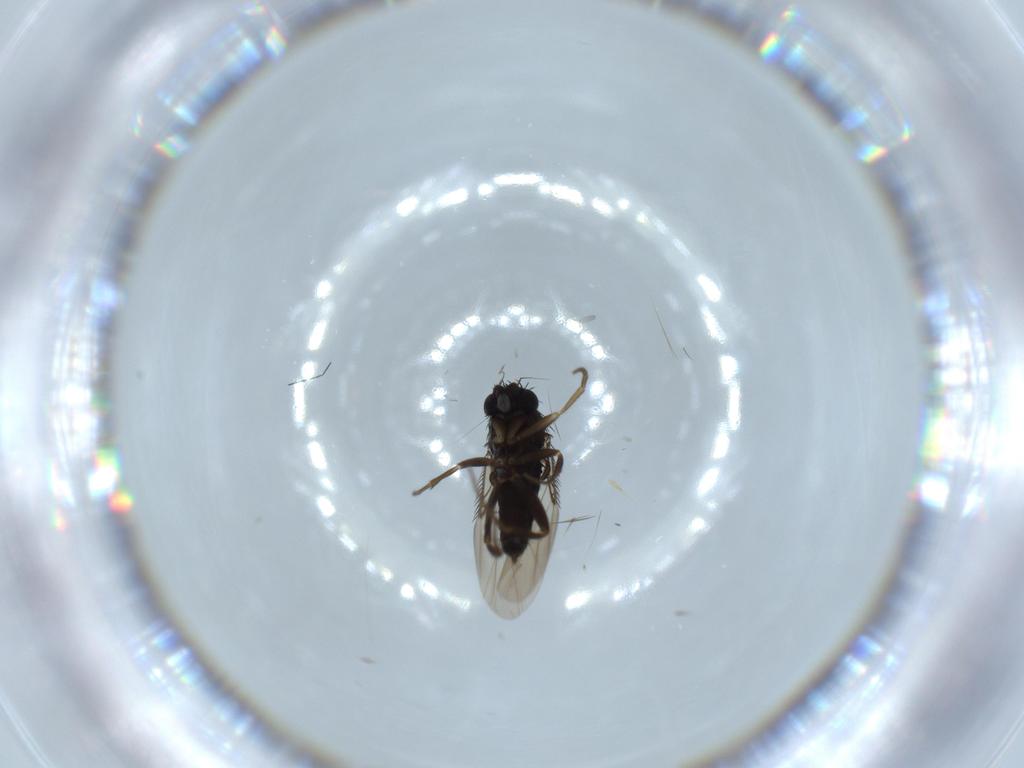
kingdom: Animalia
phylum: Arthropoda
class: Insecta
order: Diptera
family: Phoridae
